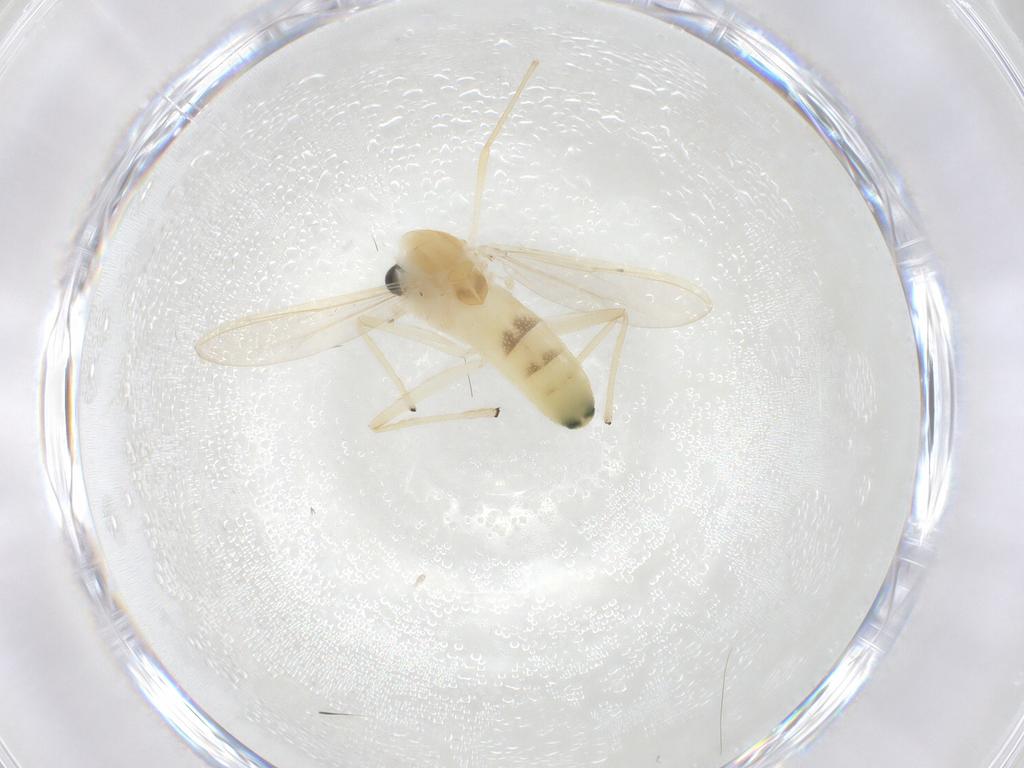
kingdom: Animalia
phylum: Arthropoda
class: Insecta
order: Diptera
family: Chironomidae
